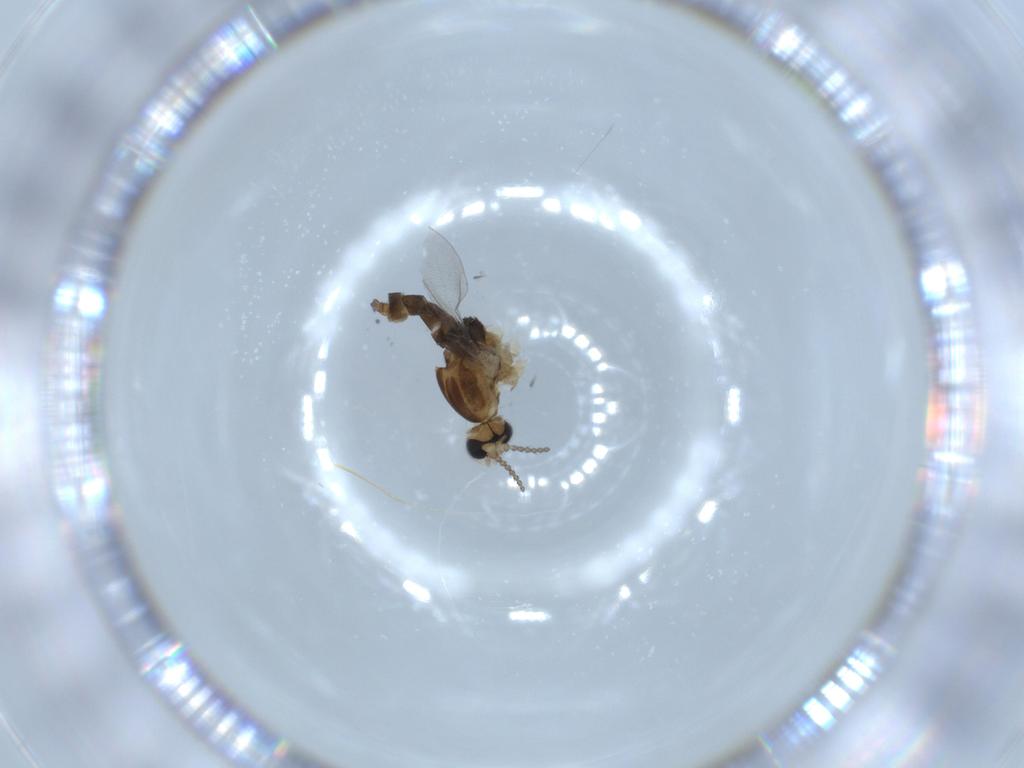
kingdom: Animalia
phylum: Arthropoda
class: Insecta
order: Diptera
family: Cecidomyiidae
